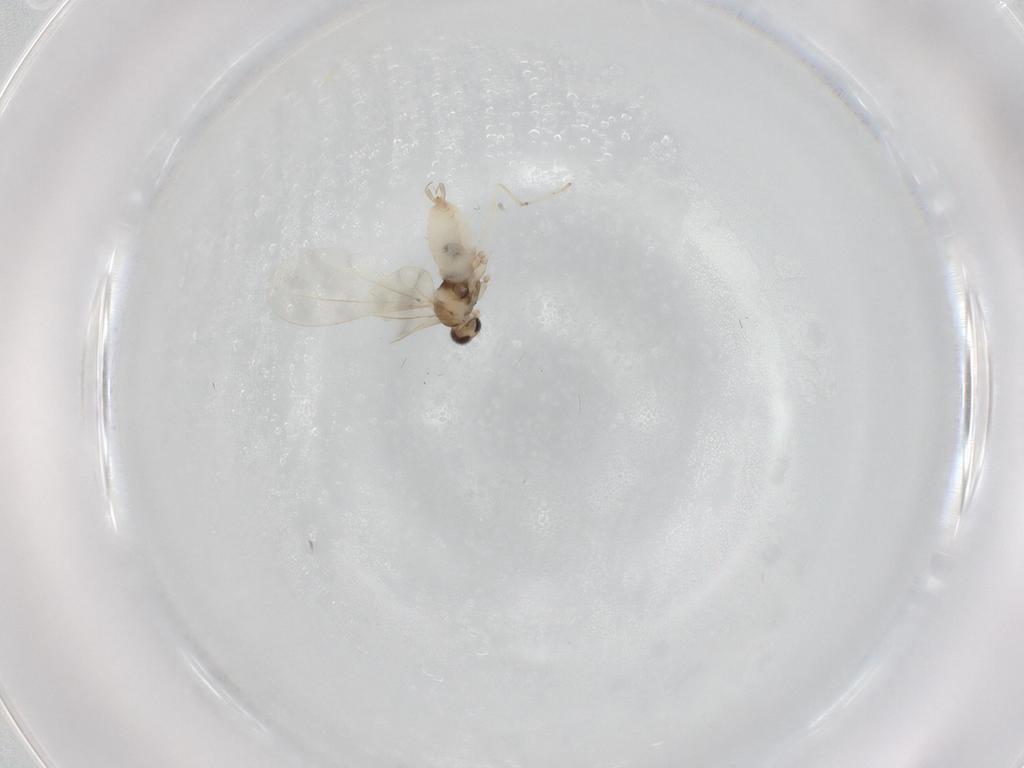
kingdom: Animalia
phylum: Arthropoda
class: Insecta
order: Diptera
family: Chironomidae
